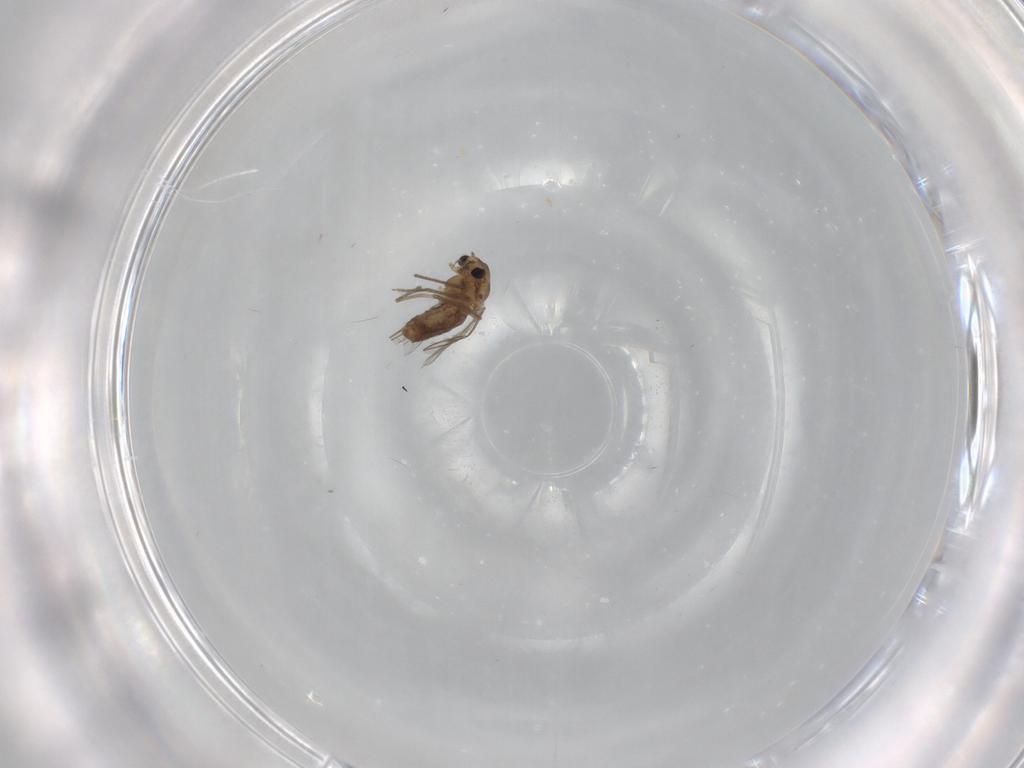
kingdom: Animalia
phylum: Arthropoda
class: Insecta
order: Diptera
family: Chironomidae
